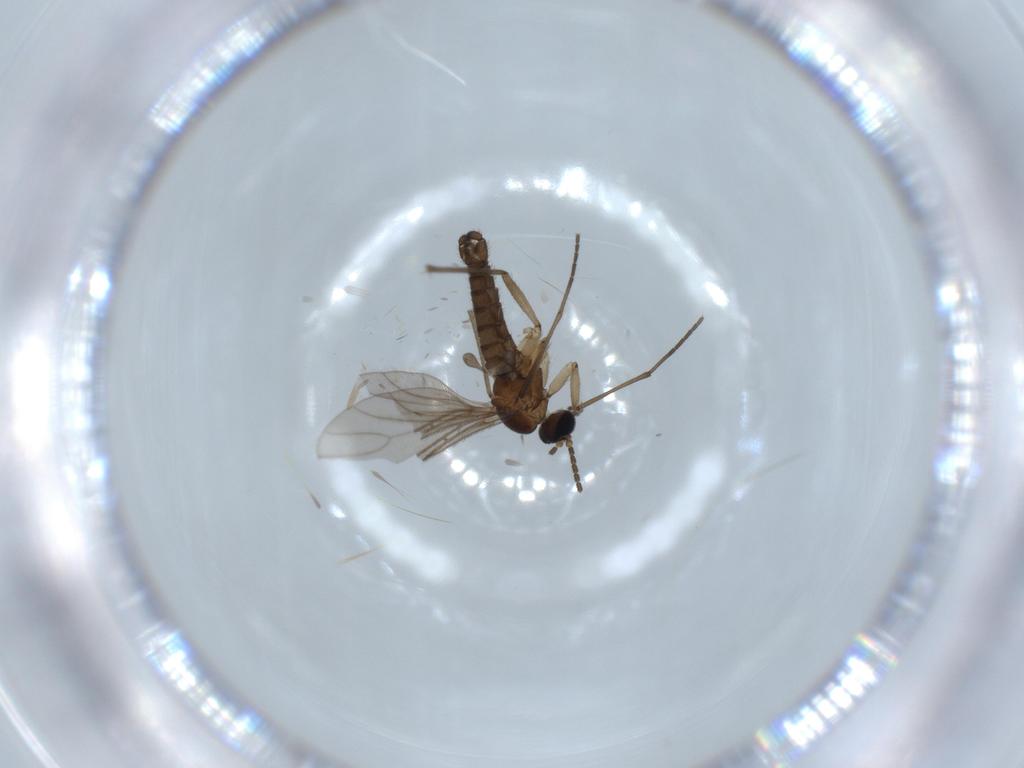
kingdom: Animalia
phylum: Arthropoda
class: Insecta
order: Diptera
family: Sciaridae
